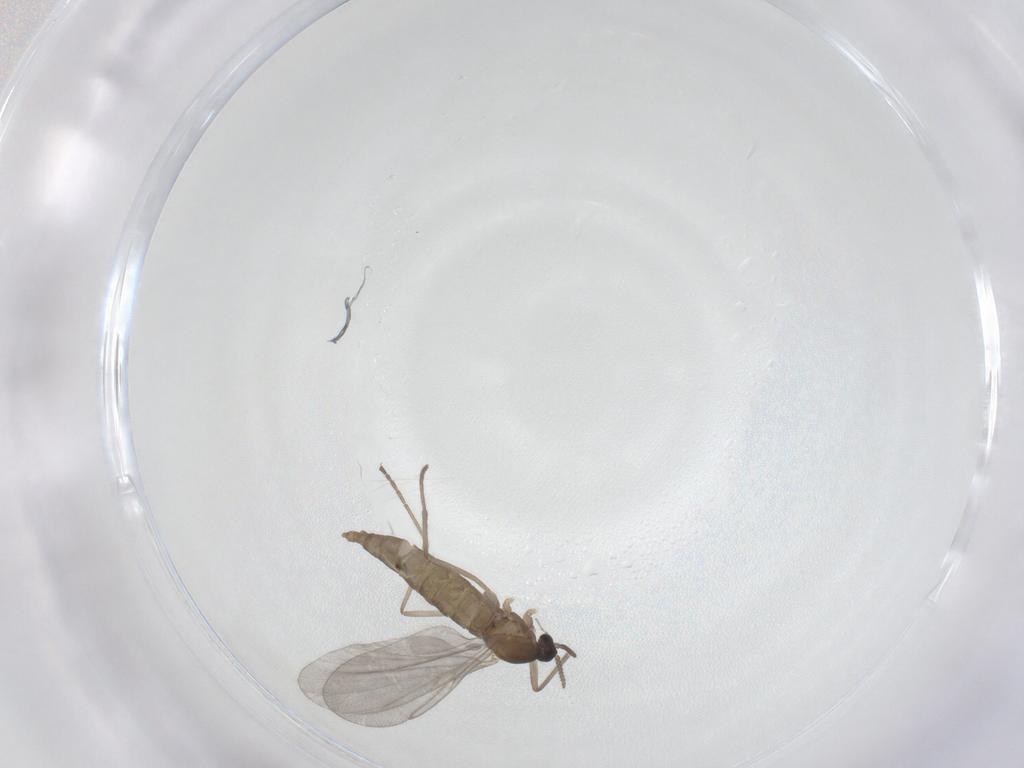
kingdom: Animalia
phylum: Arthropoda
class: Insecta
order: Diptera
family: Cecidomyiidae
